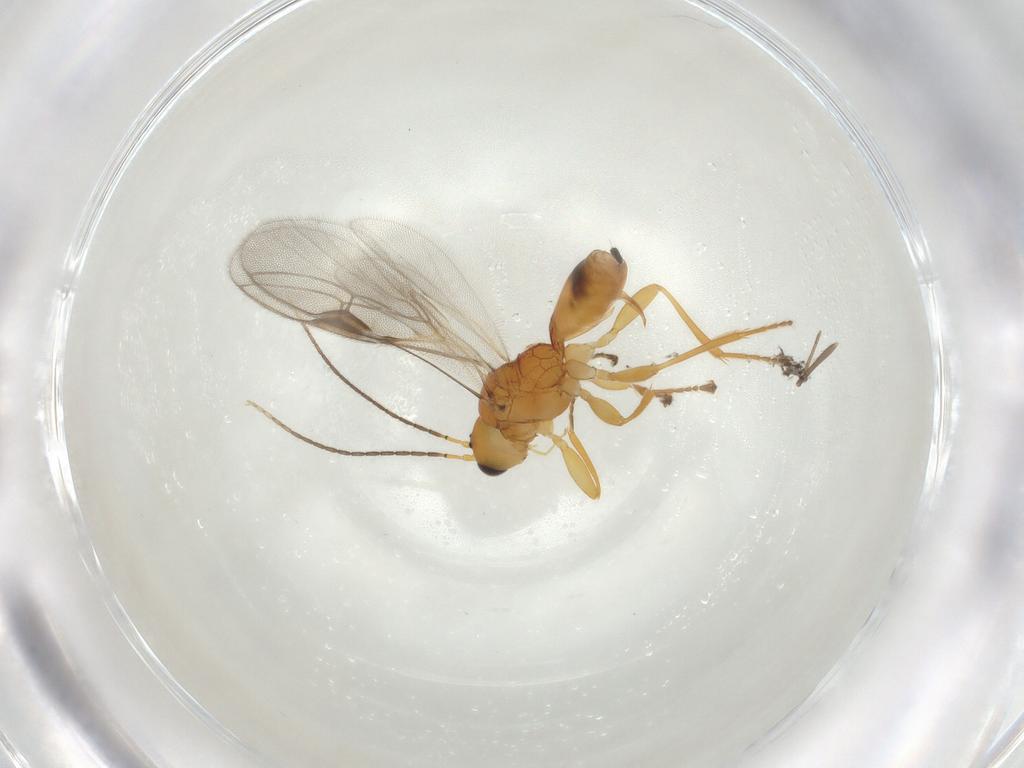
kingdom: Animalia
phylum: Arthropoda
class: Insecta
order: Hymenoptera
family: Braconidae
